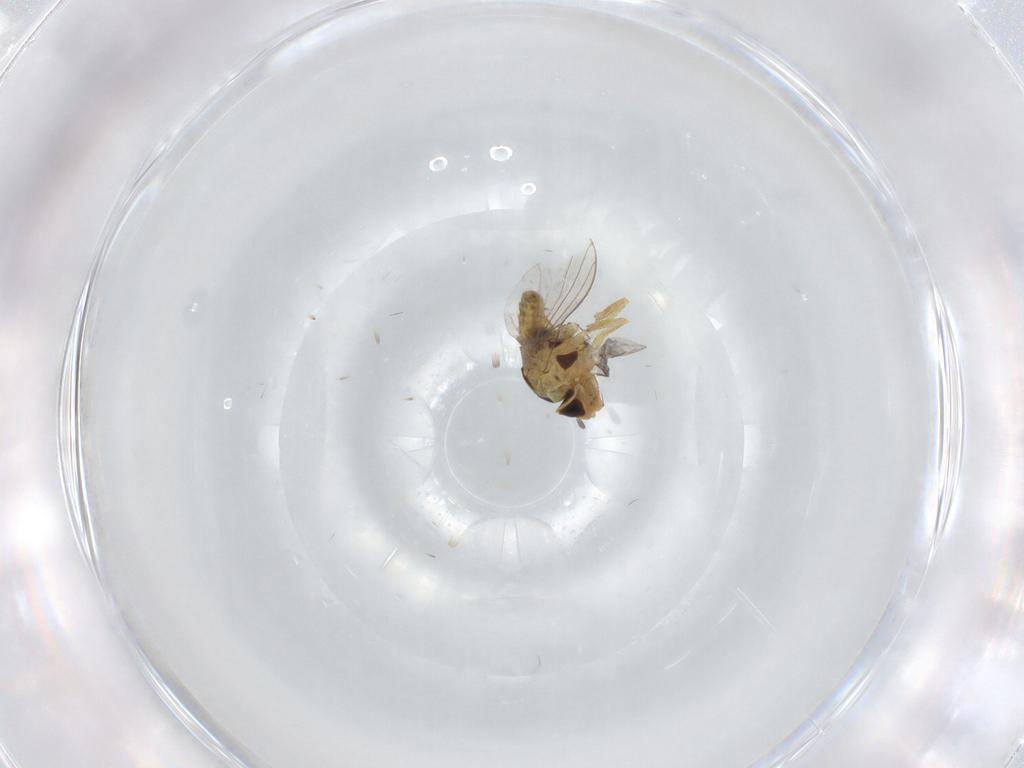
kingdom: Animalia
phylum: Arthropoda
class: Insecta
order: Diptera
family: Agromyzidae
